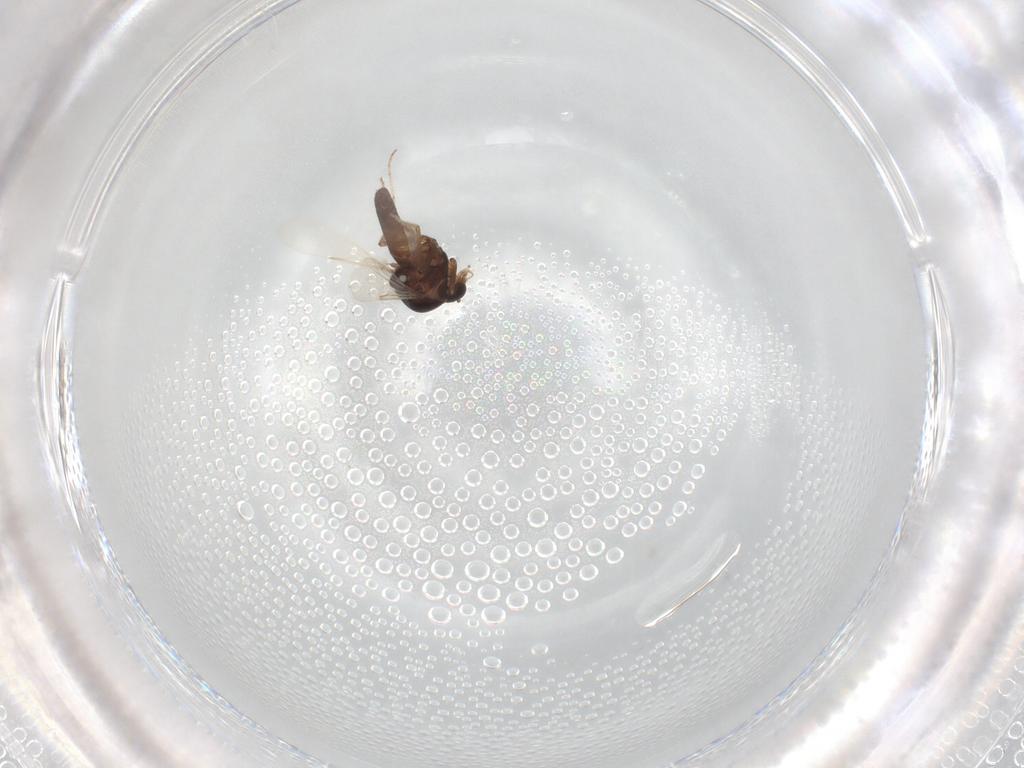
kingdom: Animalia
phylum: Arthropoda
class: Insecta
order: Diptera
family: Ceratopogonidae
